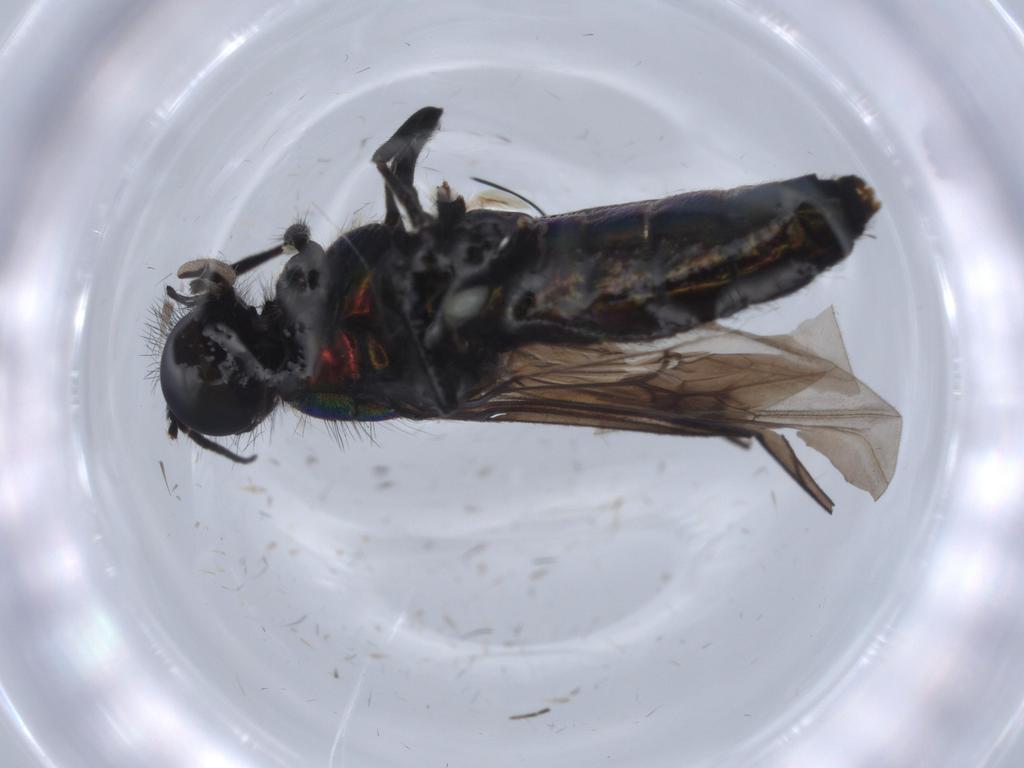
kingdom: Animalia
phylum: Arthropoda
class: Insecta
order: Diptera
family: Stratiomyidae
